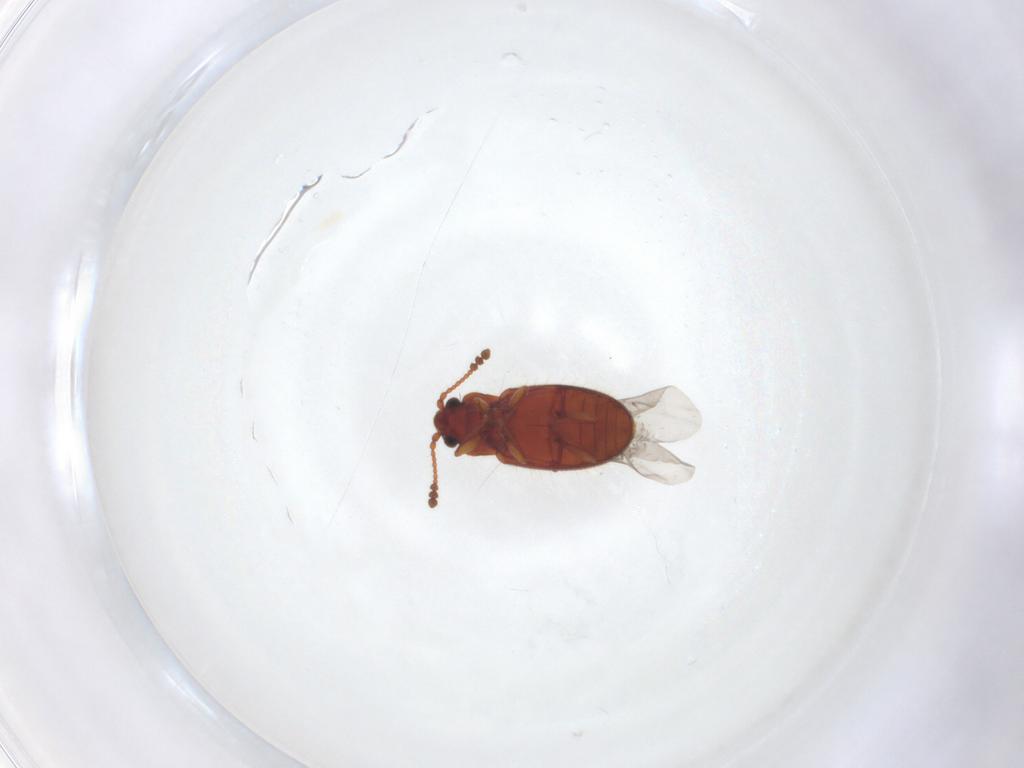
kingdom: Animalia
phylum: Arthropoda
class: Insecta
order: Coleoptera
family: Cryptophagidae
